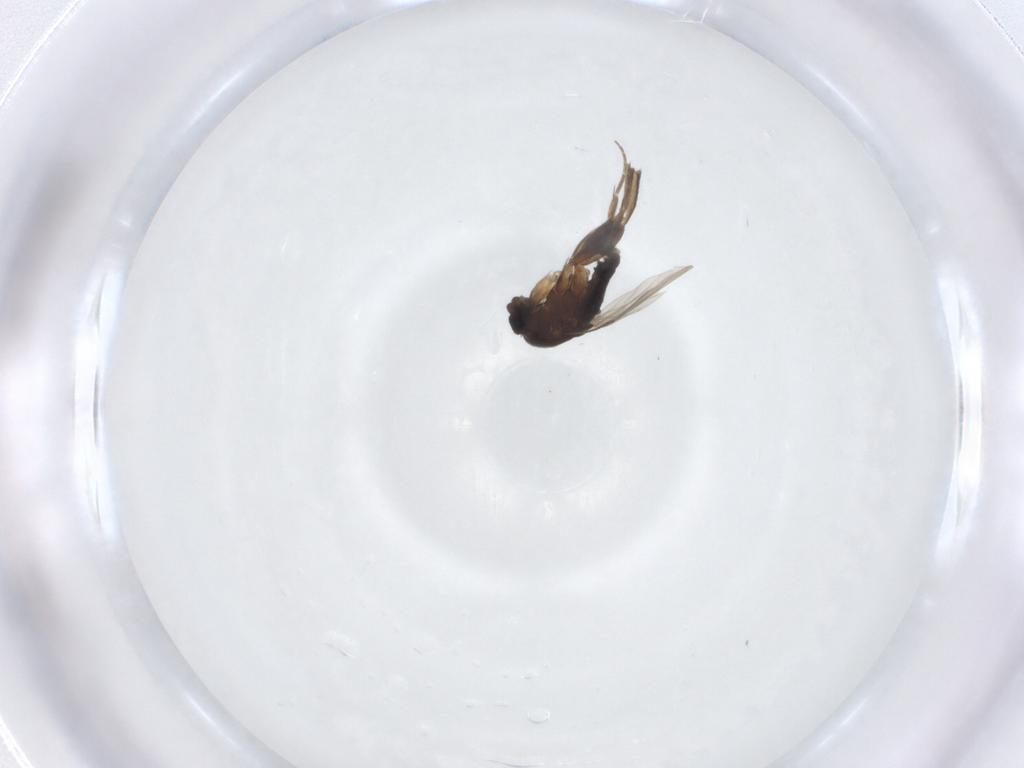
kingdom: Animalia
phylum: Arthropoda
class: Insecta
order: Diptera
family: Phoridae
